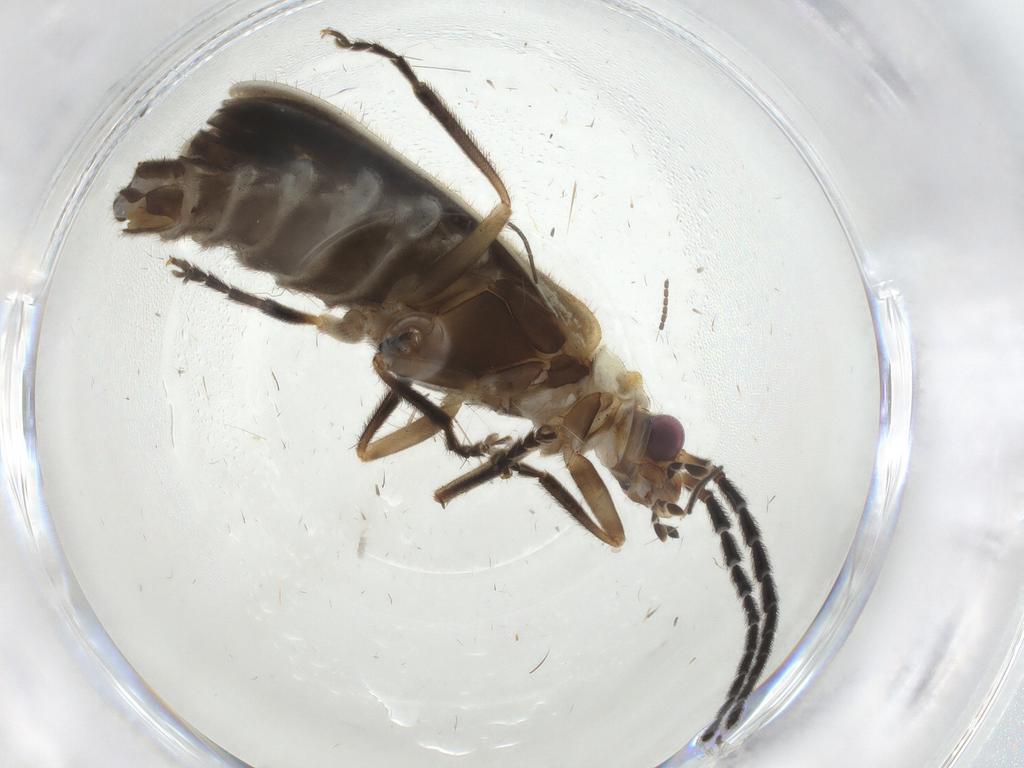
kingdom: Animalia
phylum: Arthropoda
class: Insecta
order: Coleoptera
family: Cantharidae
